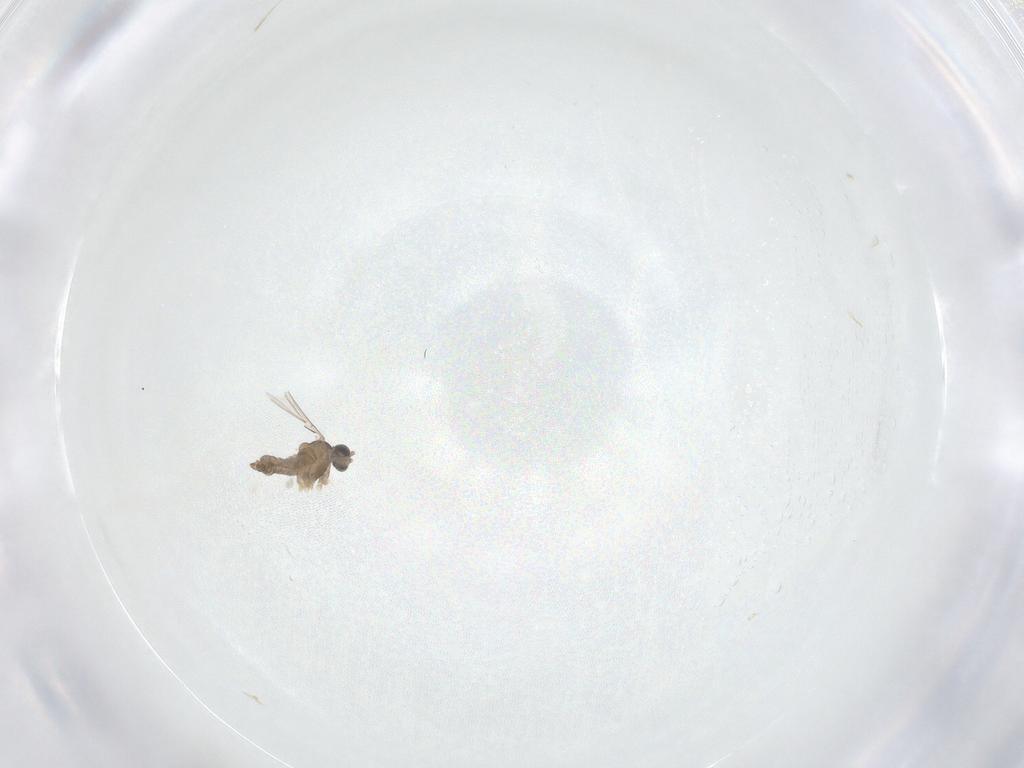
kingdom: Animalia
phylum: Arthropoda
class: Insecta
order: Diptera
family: Cecidomyiidae
